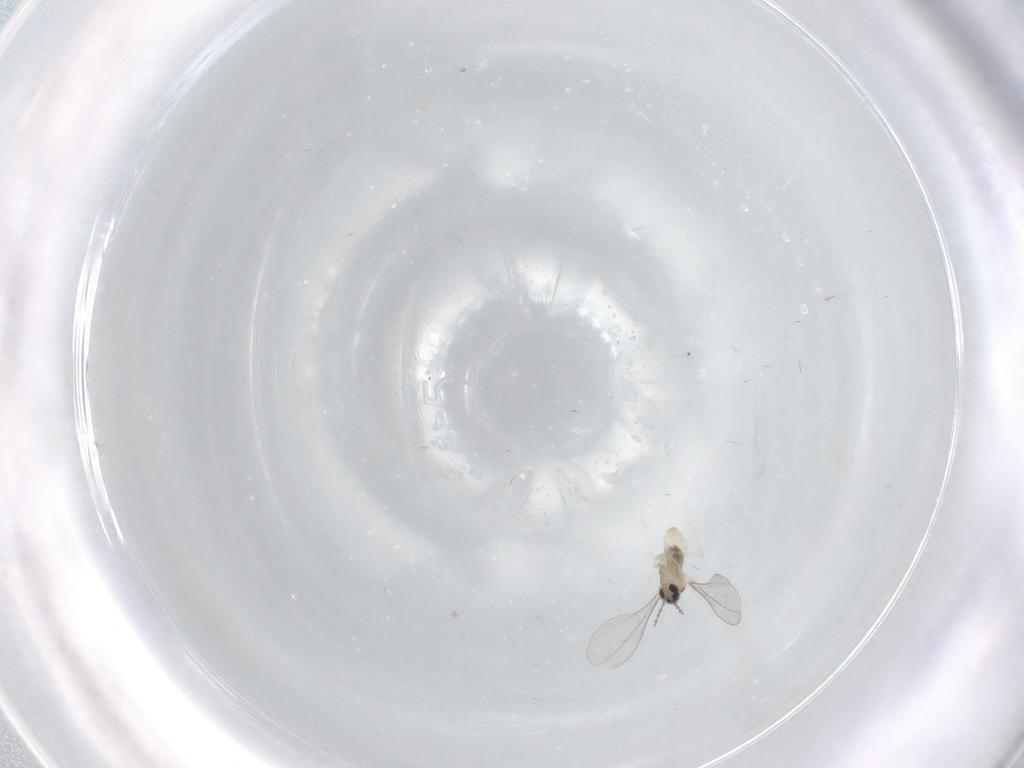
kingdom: Animalia
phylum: Arthropoda
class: Insecta
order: Diptera
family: Cecidomyiidae
